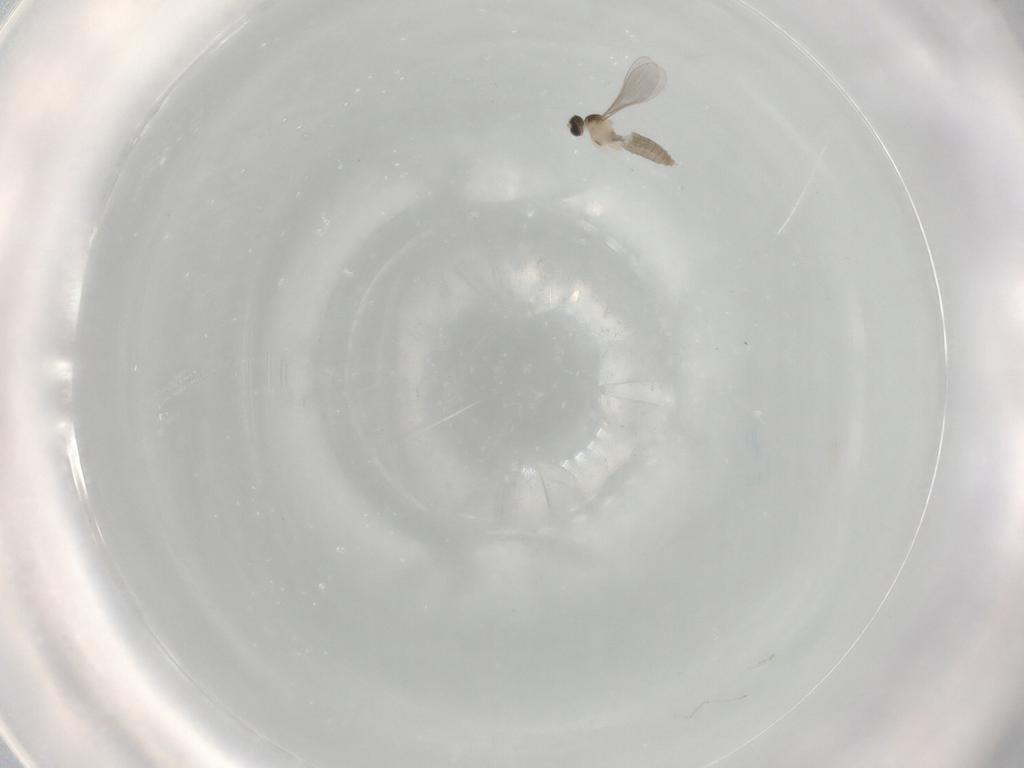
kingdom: Animalia
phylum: Arthropoda
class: Insecta
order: Diptera
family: Cecidomyiidae
